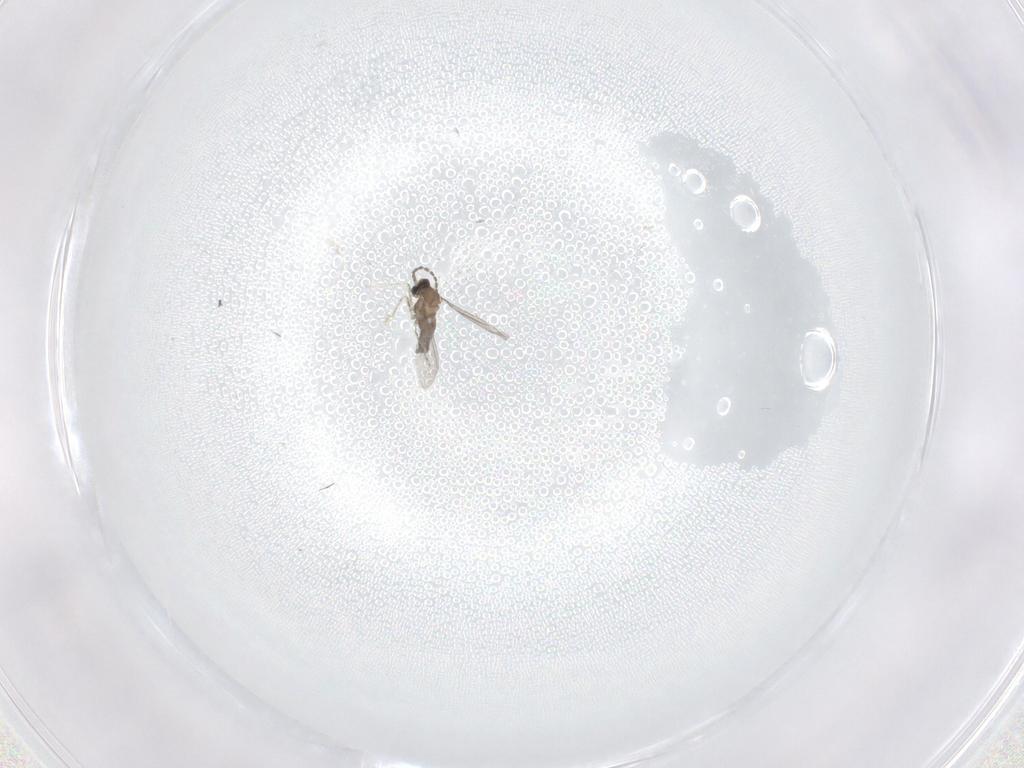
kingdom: Animalia
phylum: Arthropoda
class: Insecta
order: Diptera
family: Cecidomyiidae
